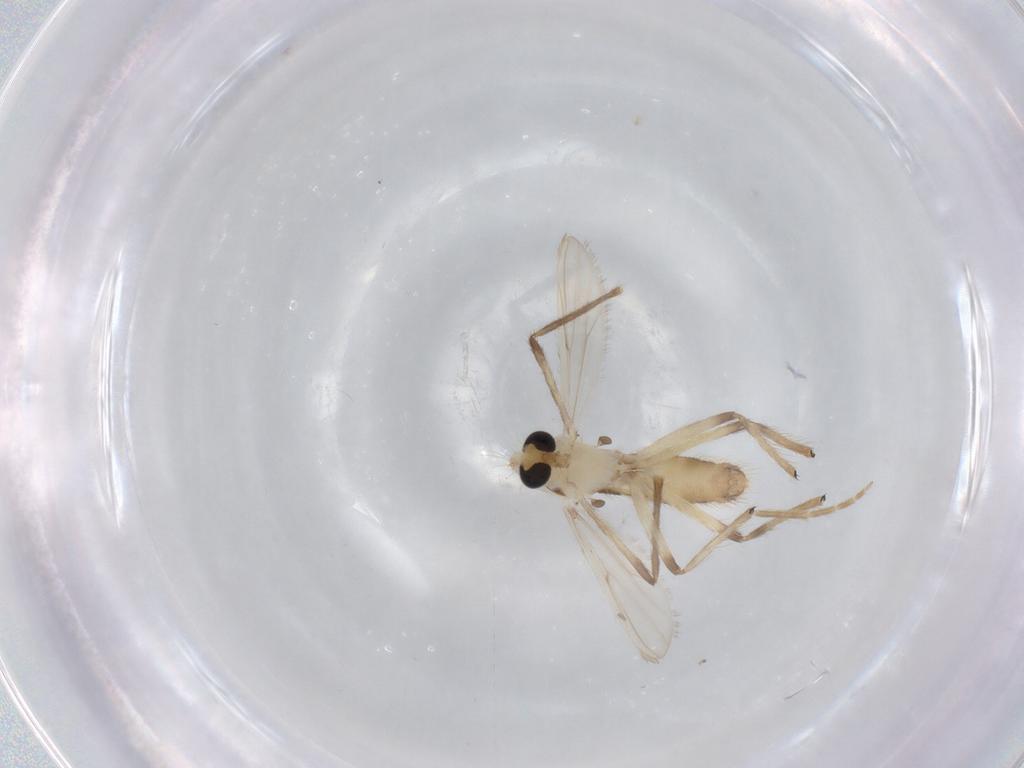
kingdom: Animalia
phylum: Arthropoda
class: Insecta
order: Diptera
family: Chironomidae
